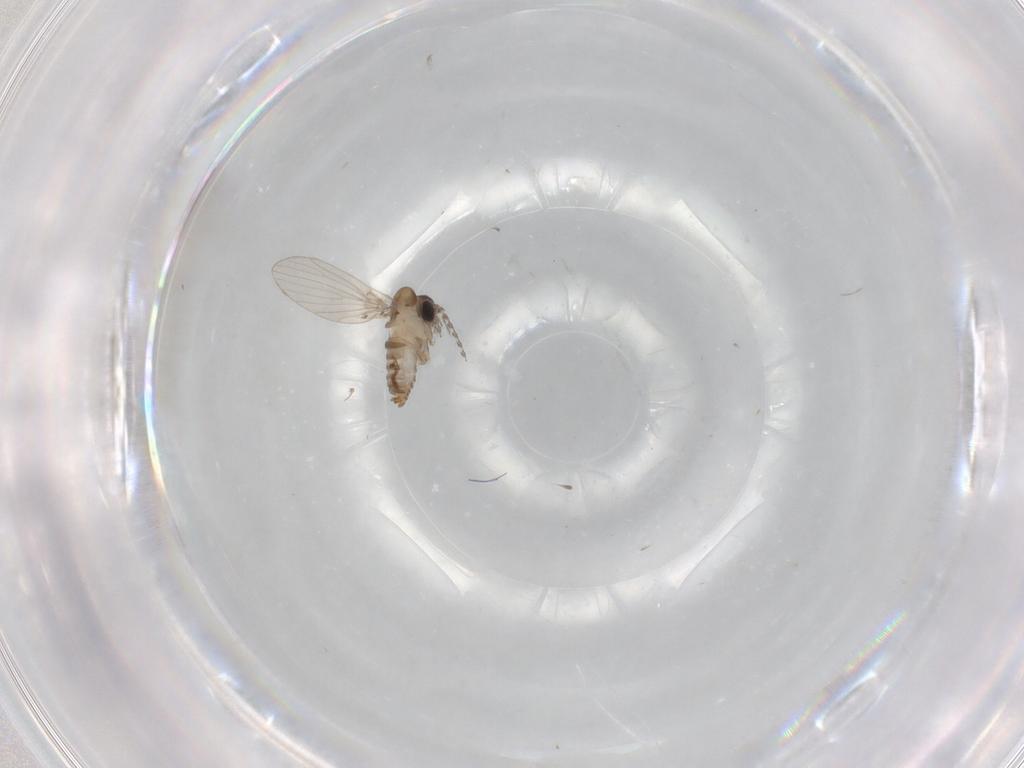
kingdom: Animalia
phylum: Arthropoda
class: Insecta
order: Diptera
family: Psychodidae
